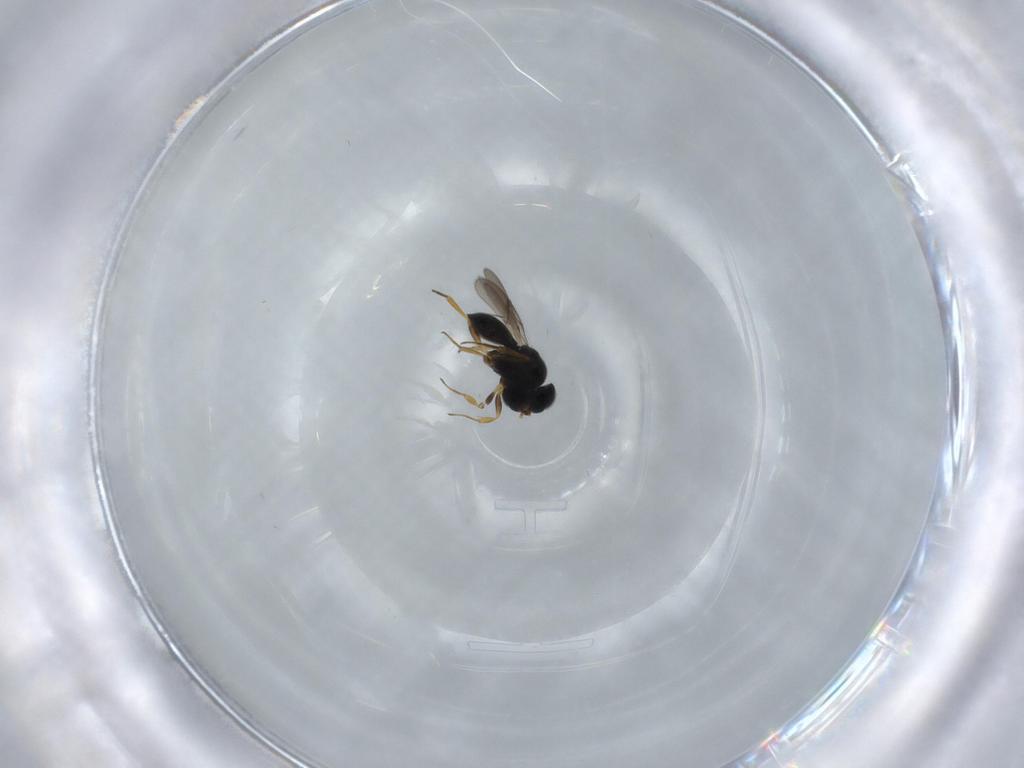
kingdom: Animalia
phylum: Arthropoda
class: Insecta
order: Hymenoptera
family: Scelionidae
